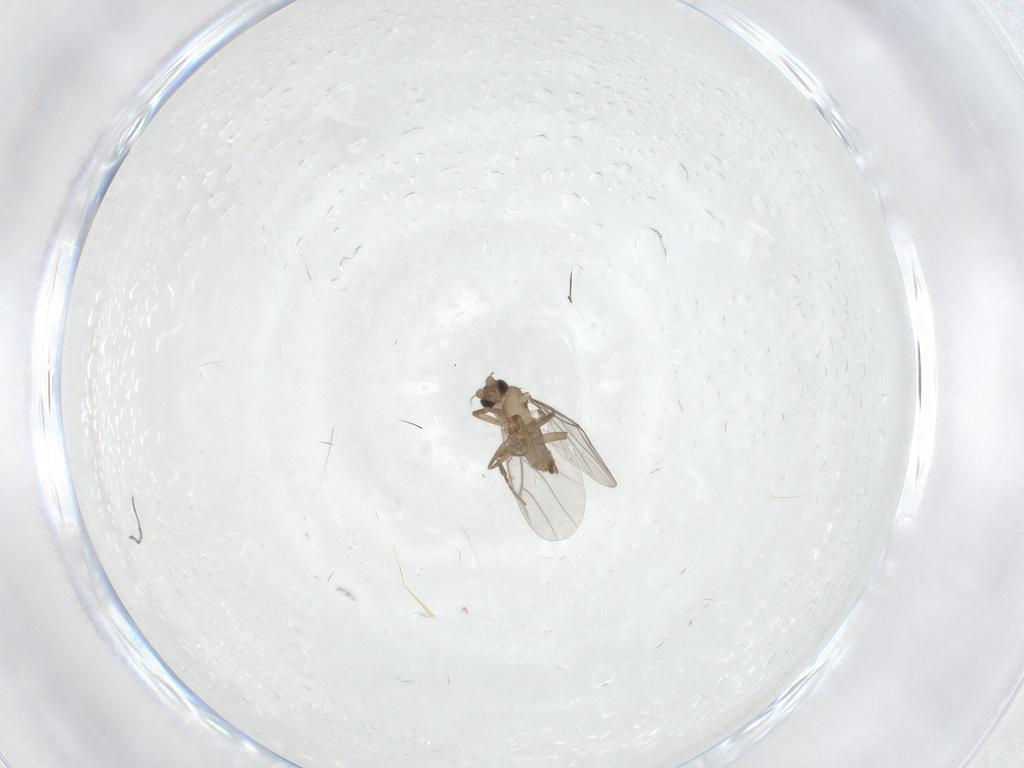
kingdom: Animalia
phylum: Arthropoda
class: Insecta
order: Diptera
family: Cecidomyiidae
